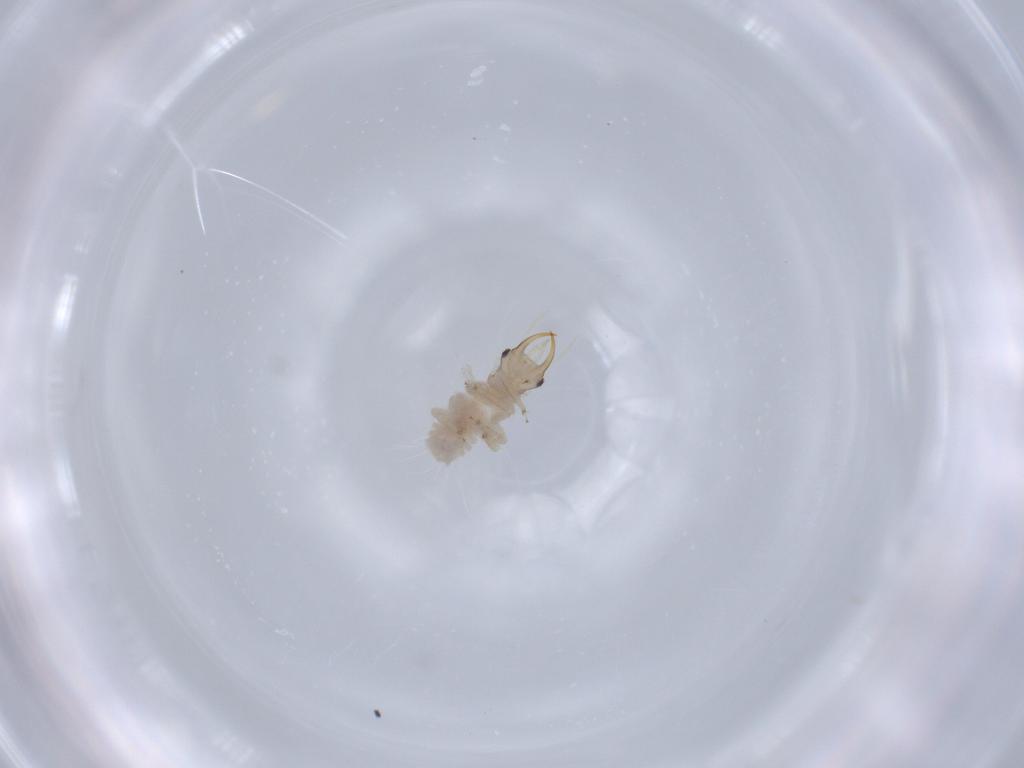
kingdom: Animalia
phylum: Arthropoda
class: Insecta
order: Neuroptera
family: Chrysopidae
